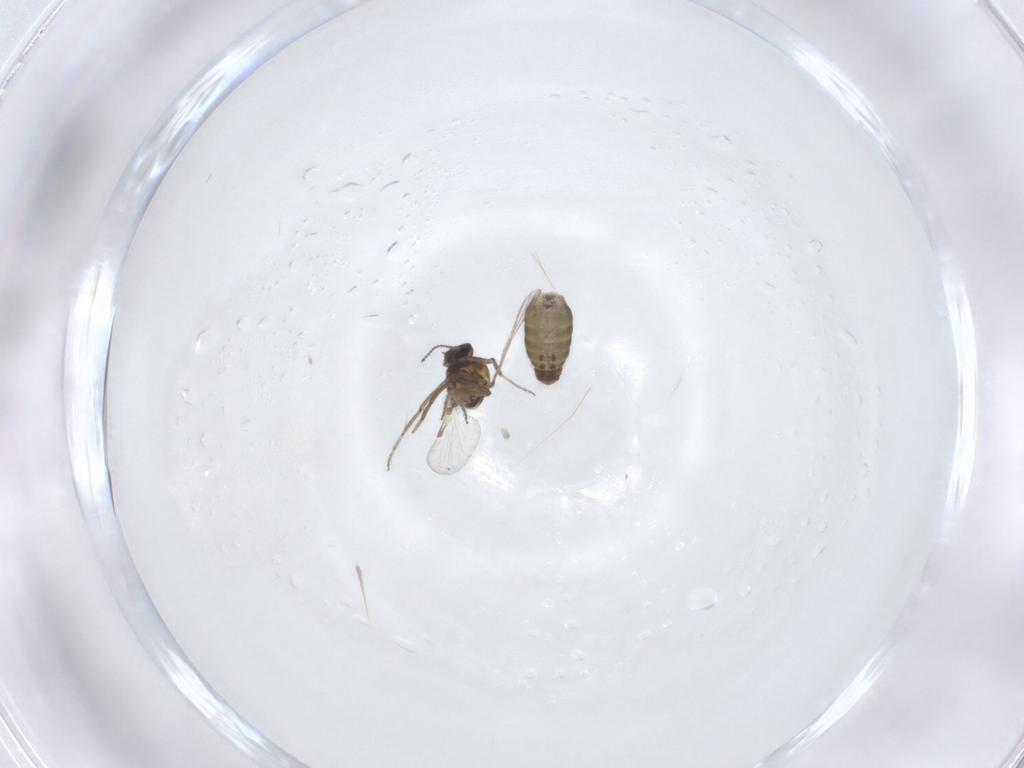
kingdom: Animalia
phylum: Arthropoda
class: Insecta
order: Diptera
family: Ceratopogonidae
